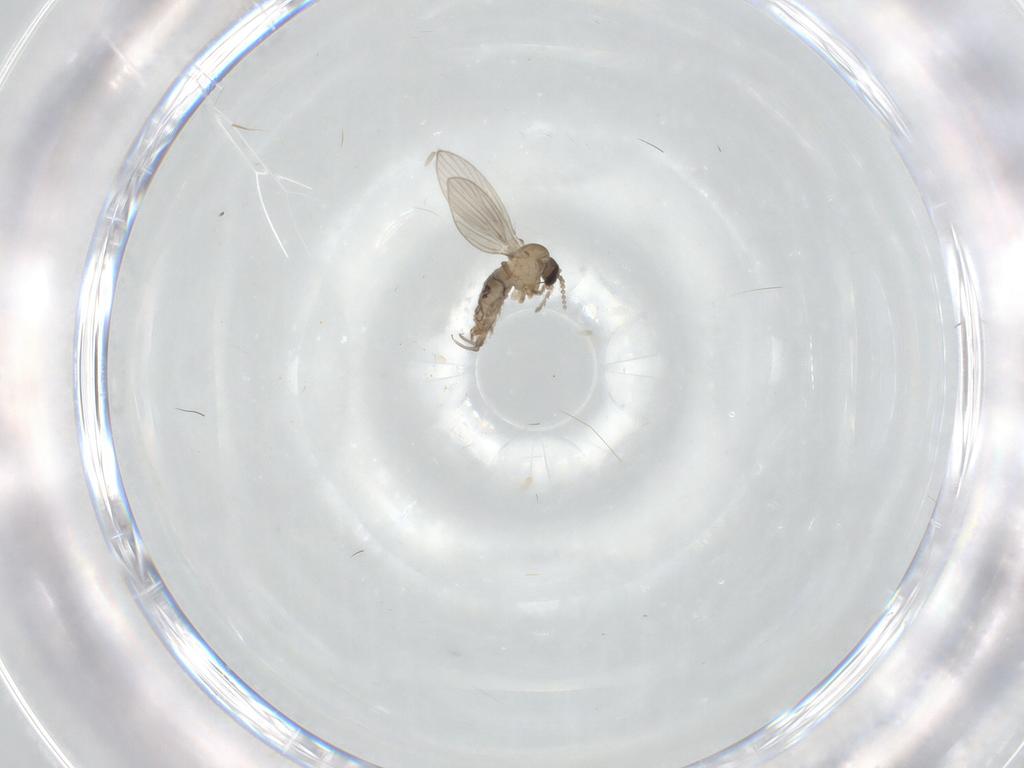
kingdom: Animalia
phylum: Arthropoda
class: Insecta
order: Diptera
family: Psychodidae
